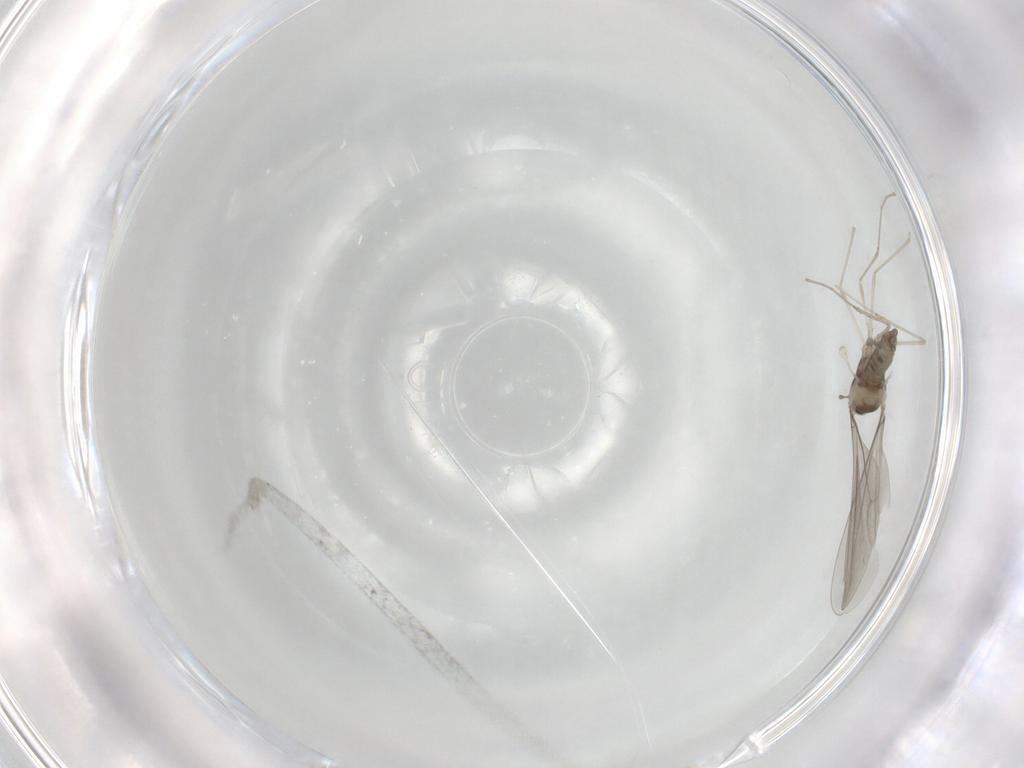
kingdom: Animalia
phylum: Arthropoda
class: Insecta
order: Diptera
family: Cecidomyiidae
